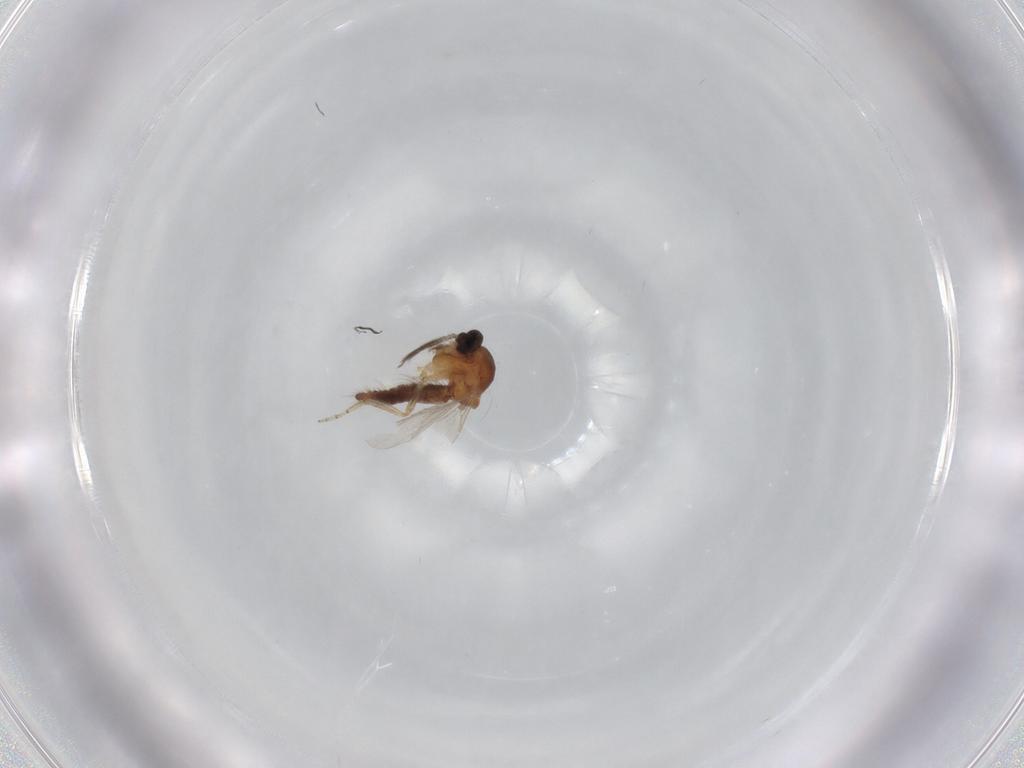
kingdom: Animalia
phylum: Arthropoda
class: Insecta
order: Diptera
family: Ceratopogonidae
